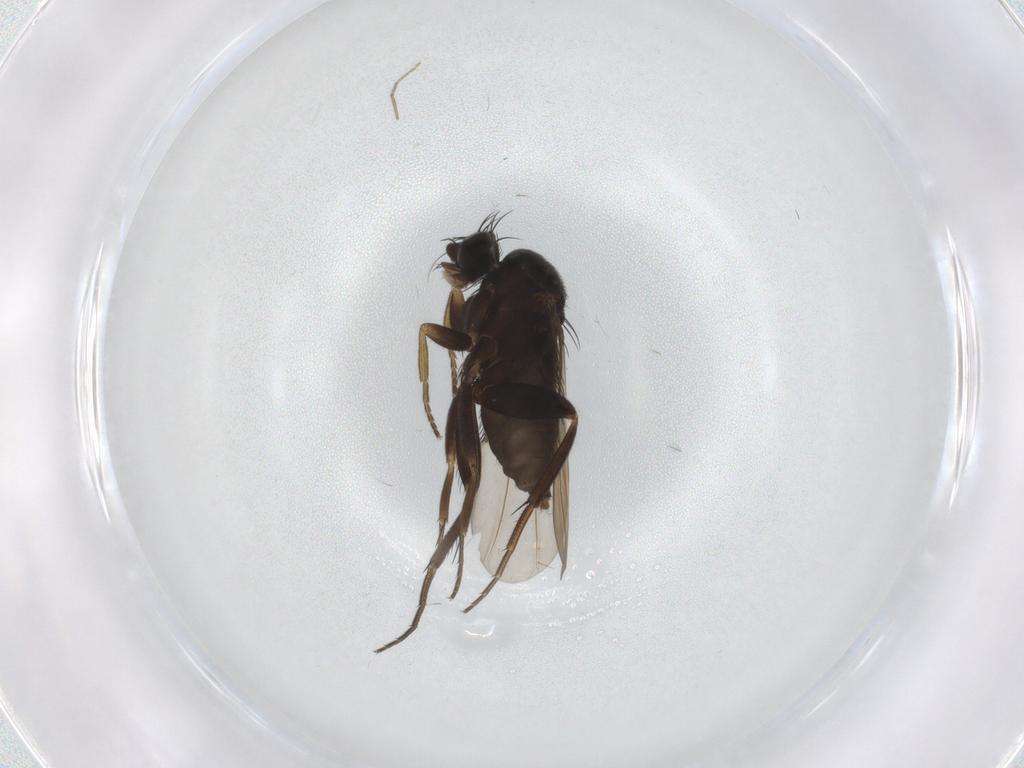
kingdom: Animalia
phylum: Arthropoda
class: Insecta
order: Diptera
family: Phoridae
